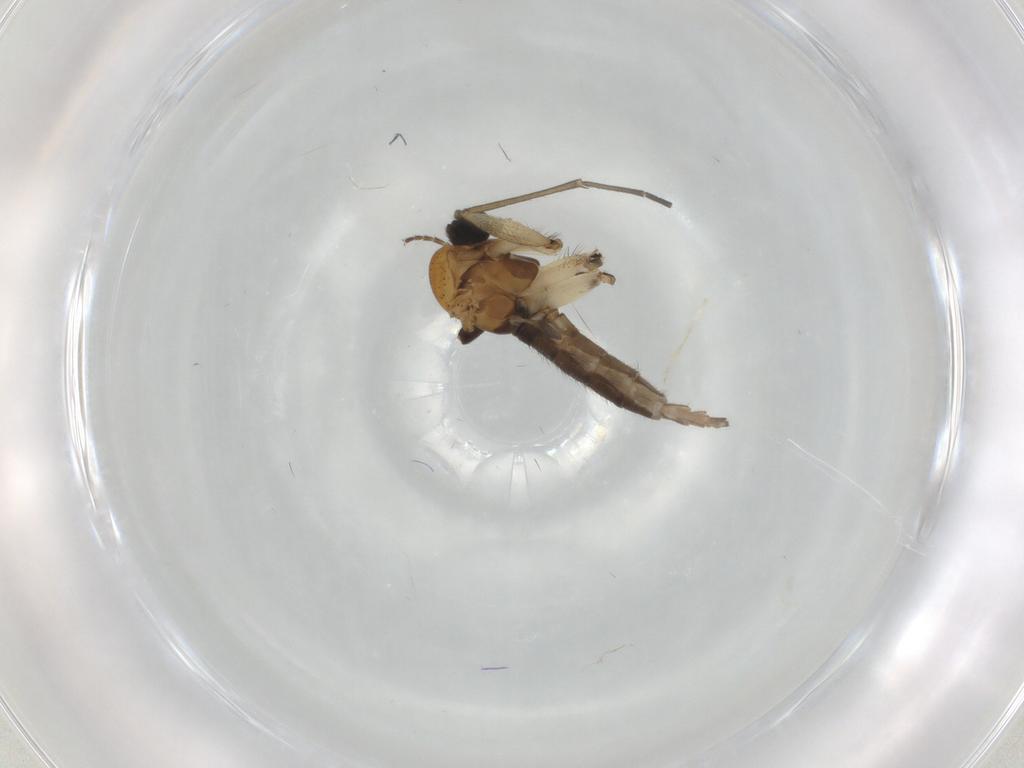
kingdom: Animalia
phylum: Arthropoda
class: Insecta
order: Diptera
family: Sciaridae
